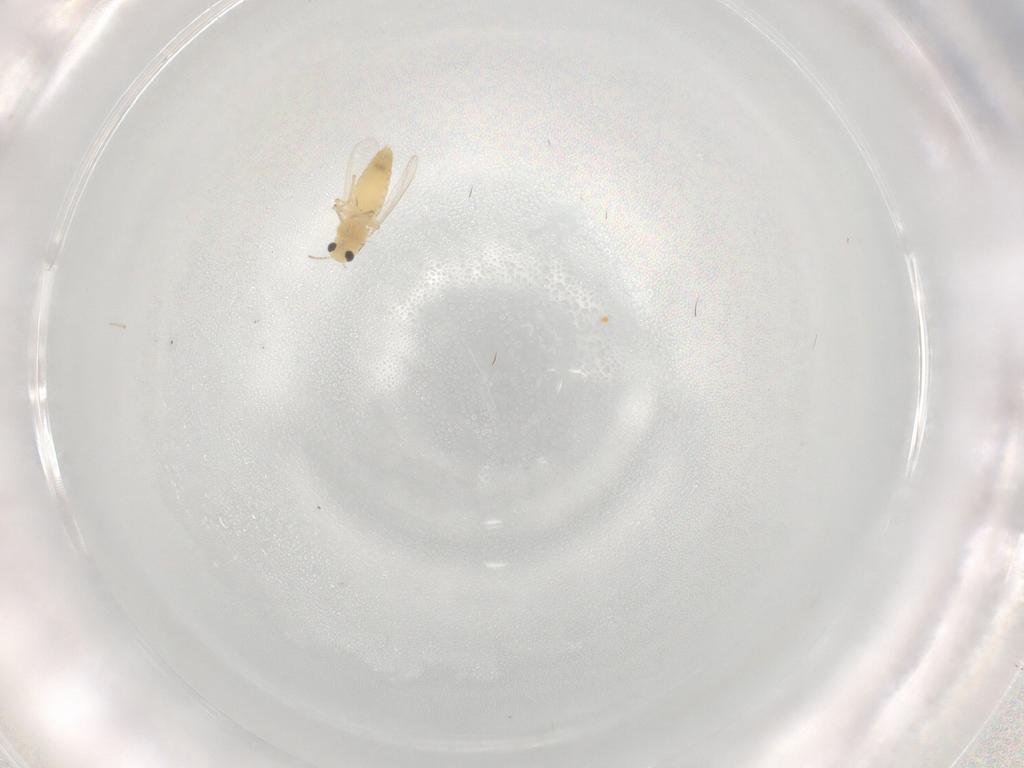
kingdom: Animalia
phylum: Arthropoda
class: Insecta
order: Diptera
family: Chironomidae
